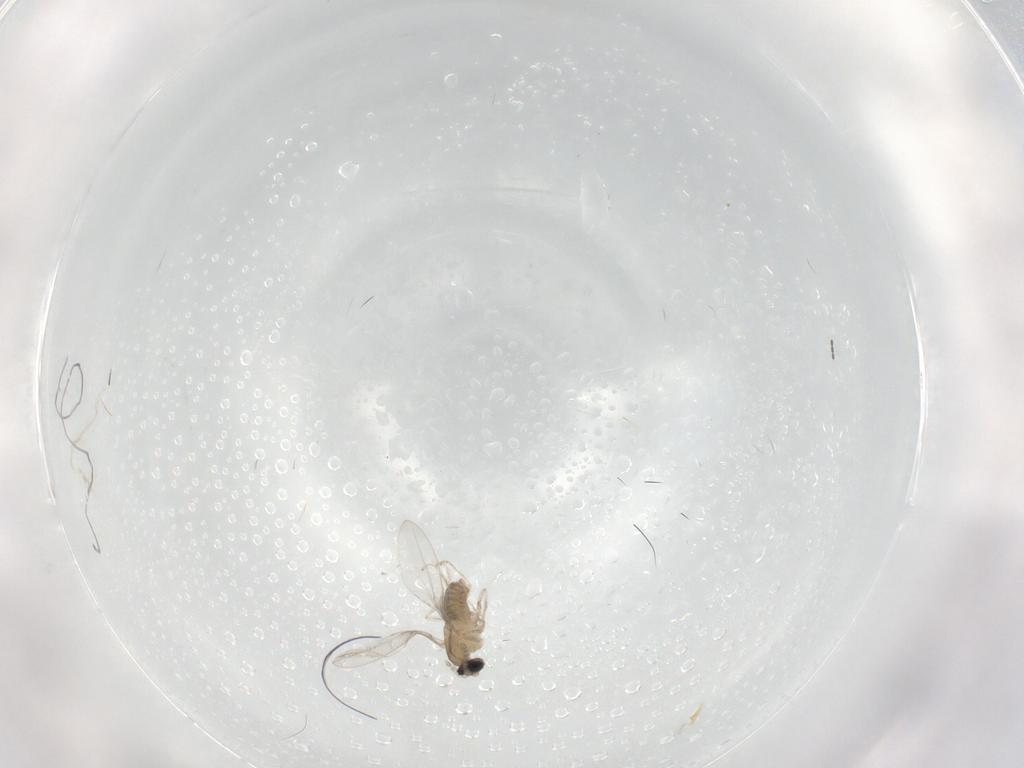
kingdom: Animalia
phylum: Arthropoda
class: Insecta
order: Diptera
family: Cecidomyiidae
